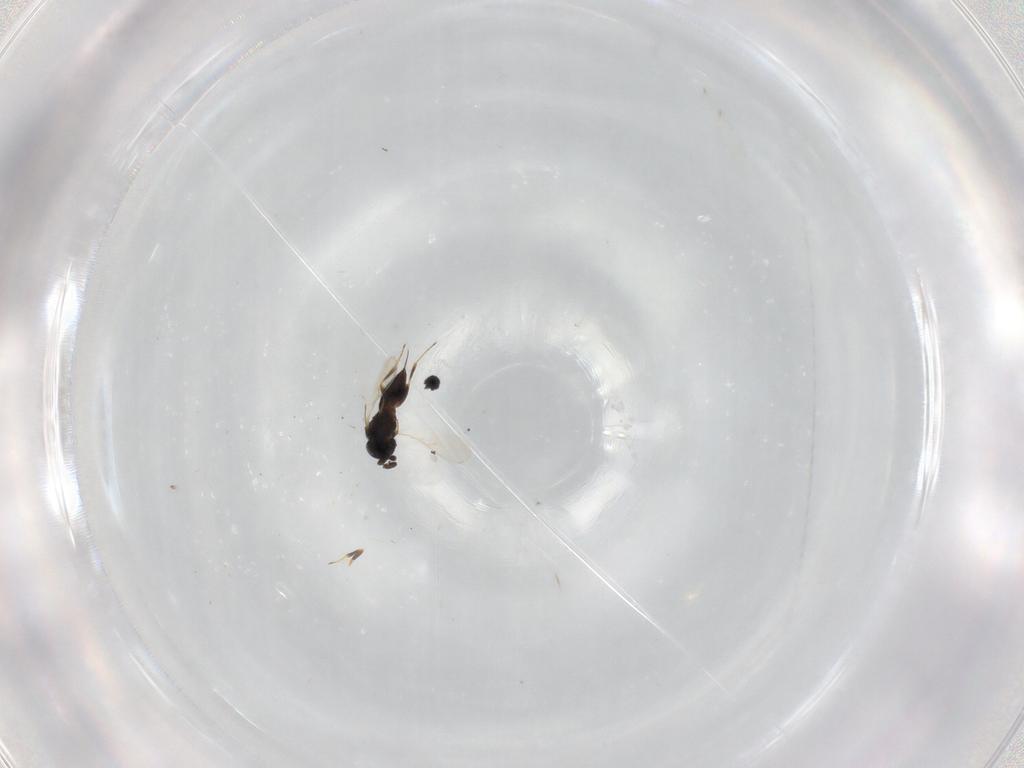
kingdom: Animalia
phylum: Arthropoda
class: Insecta
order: Hymenoptera
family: Scelionidae
